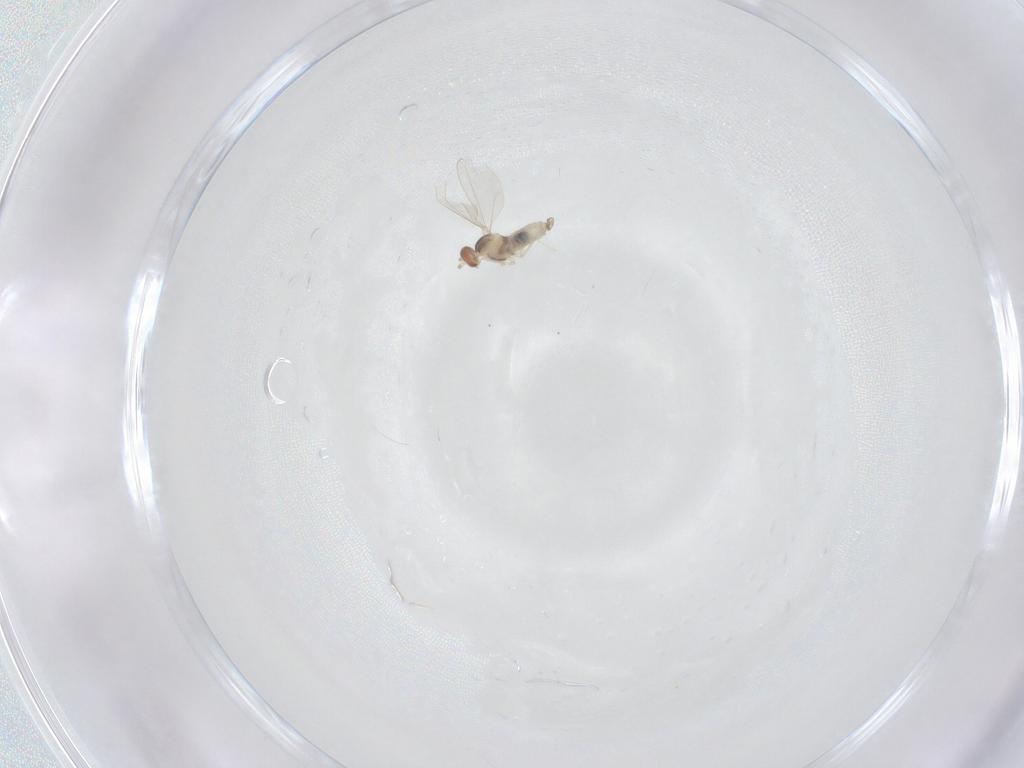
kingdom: Animalia
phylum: Arthropoda
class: Insecta
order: Diptera
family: Cecidomyiidae
